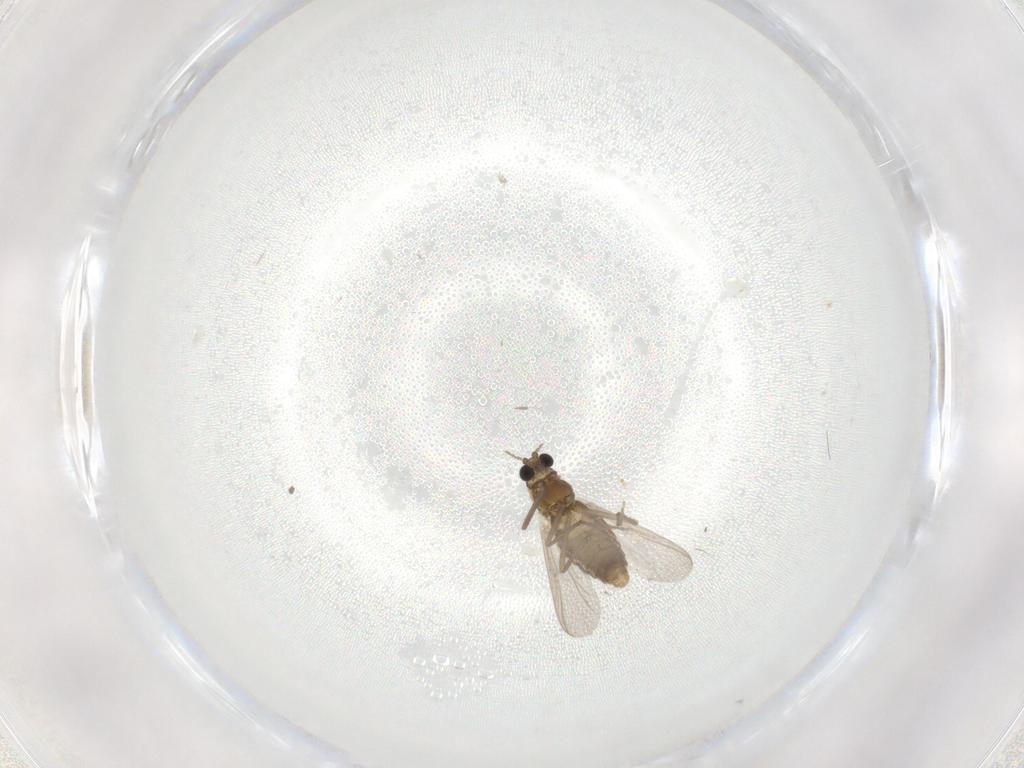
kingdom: Animalia
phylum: Arthropoda
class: Insecta
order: Diptera
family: Chironomidae
